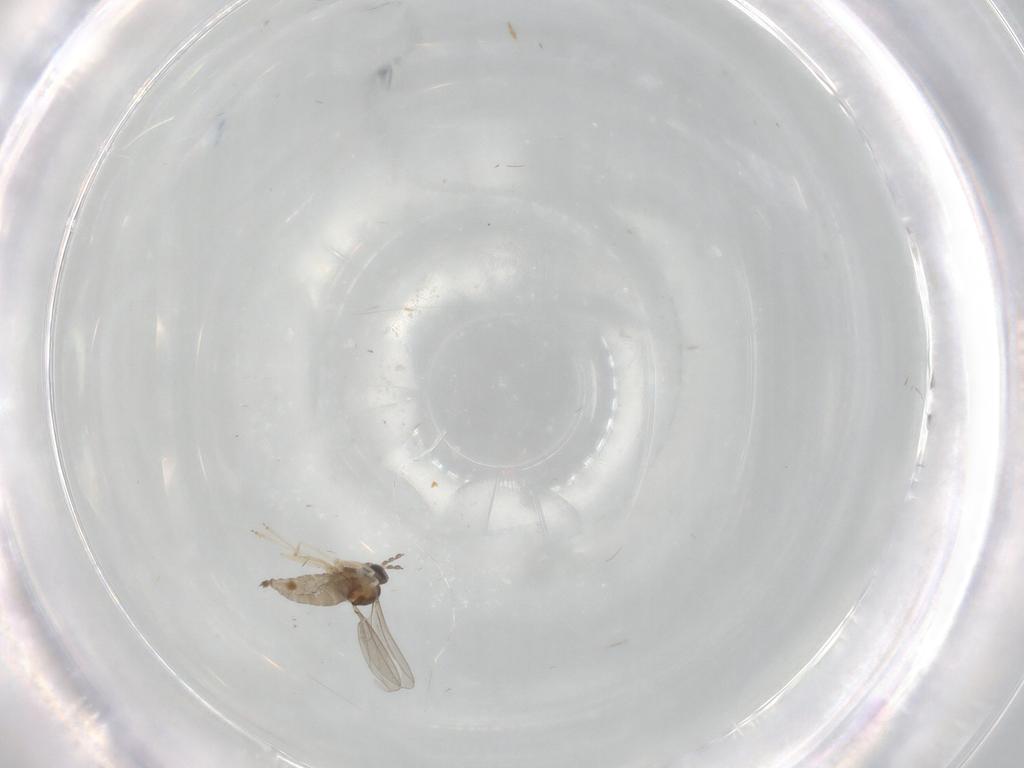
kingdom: Animalia
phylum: Arthropoda
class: Insecta
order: Diptera
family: Cecidomyiidae
